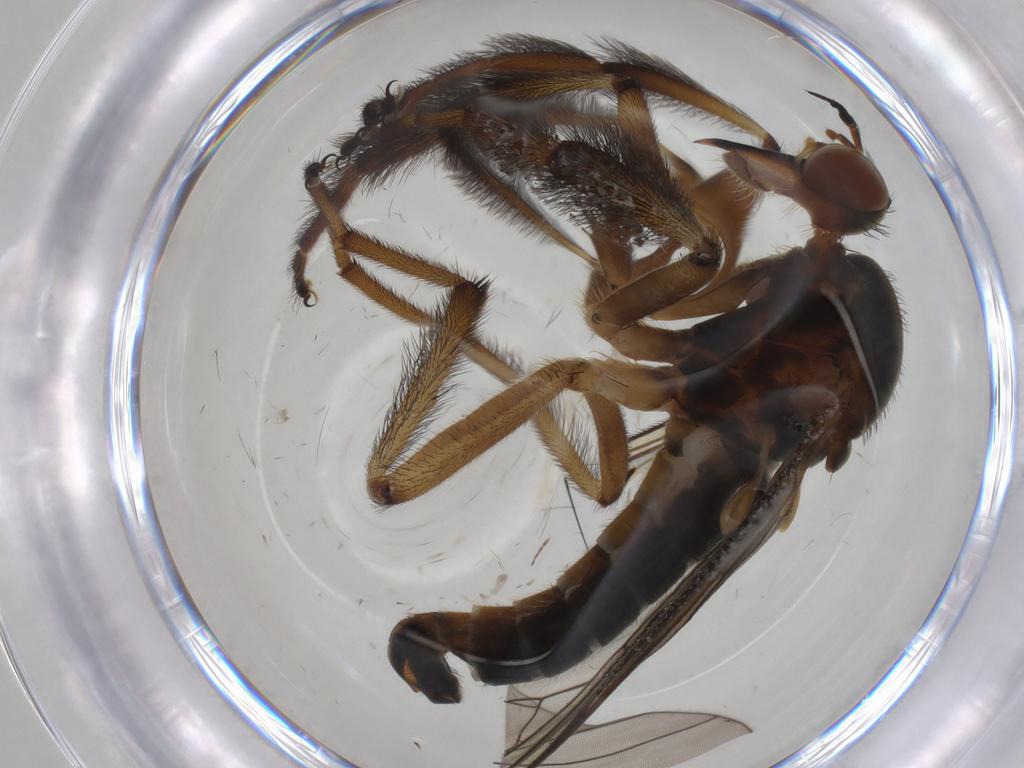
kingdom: Animalia
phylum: Arthropoda
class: Insecta
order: Diptera
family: Empididae
